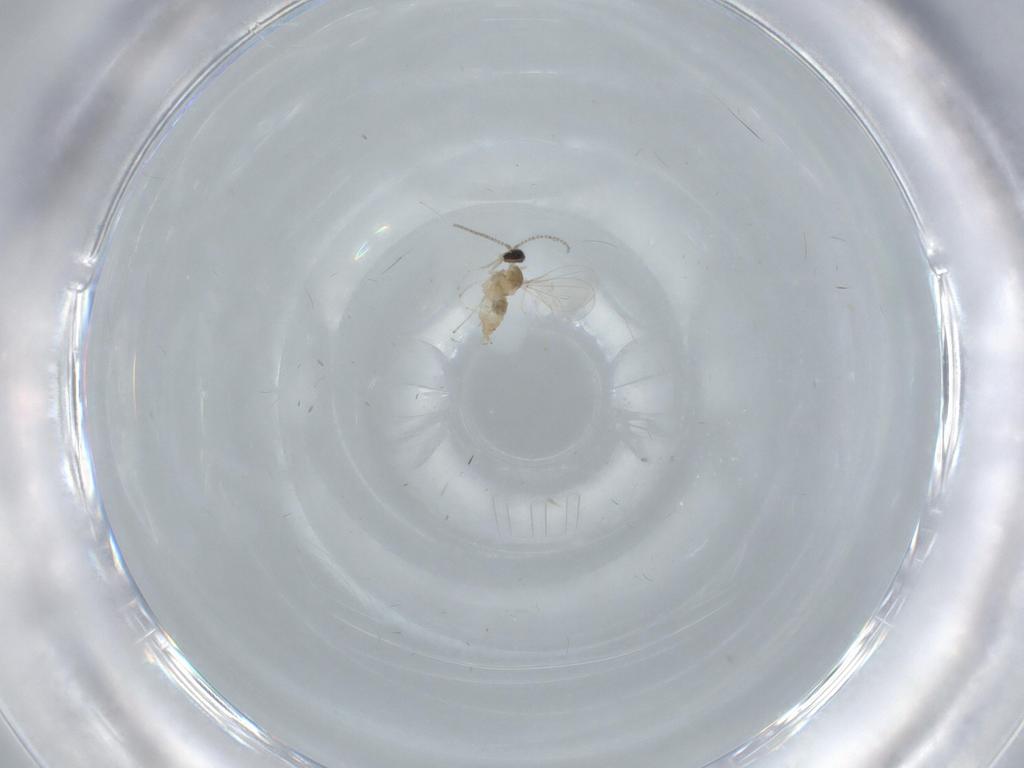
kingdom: Animalia
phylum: Arthropoda
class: Insecta
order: Diptera
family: Cecidomyiidae
